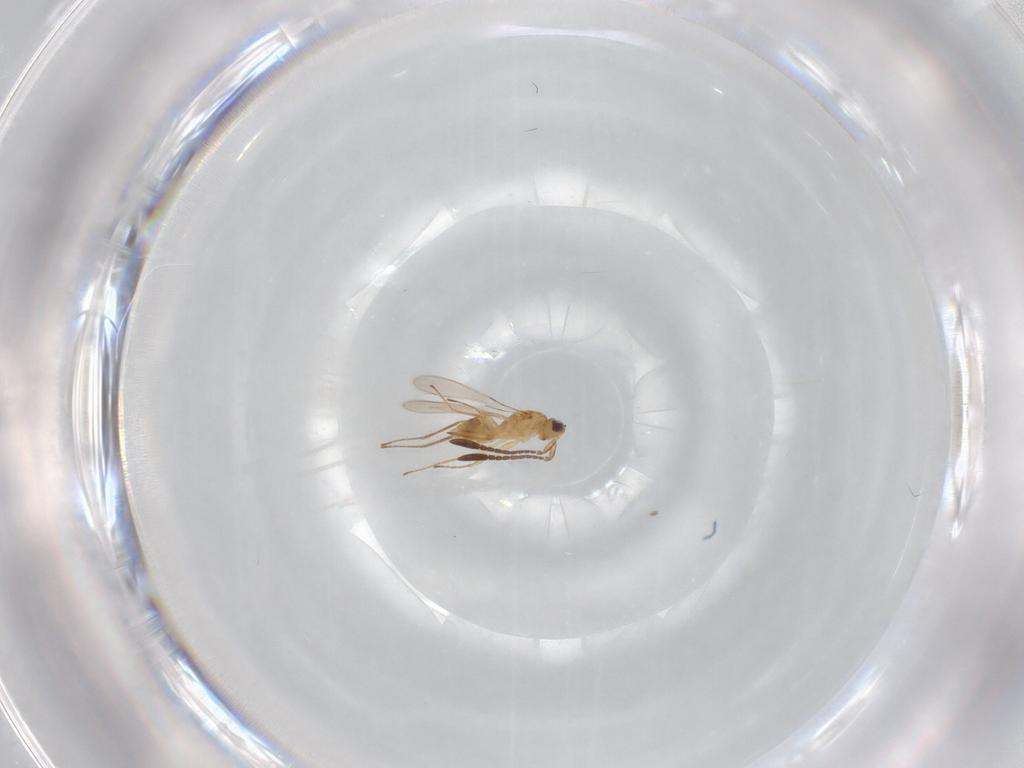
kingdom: Animalia
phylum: Arthropoda
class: Insecta
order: Hymenoptera
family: Mymaridae
